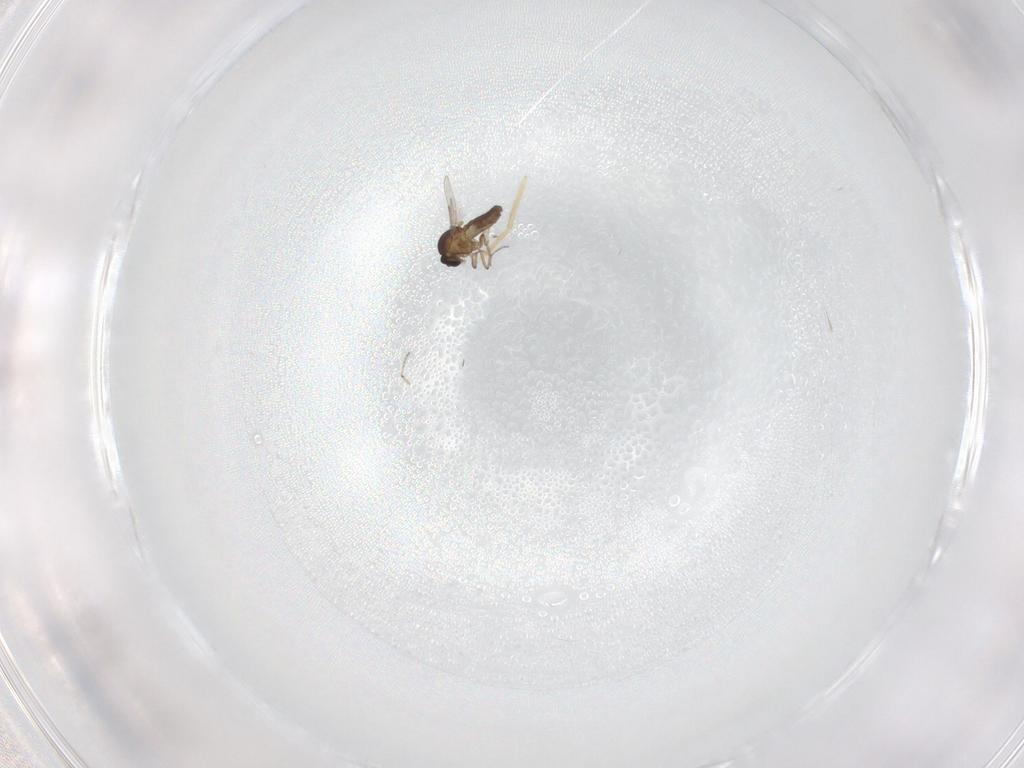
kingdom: Animalia
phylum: Arthropoda
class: Insecta
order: Diptera
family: Ceratopogonidae
